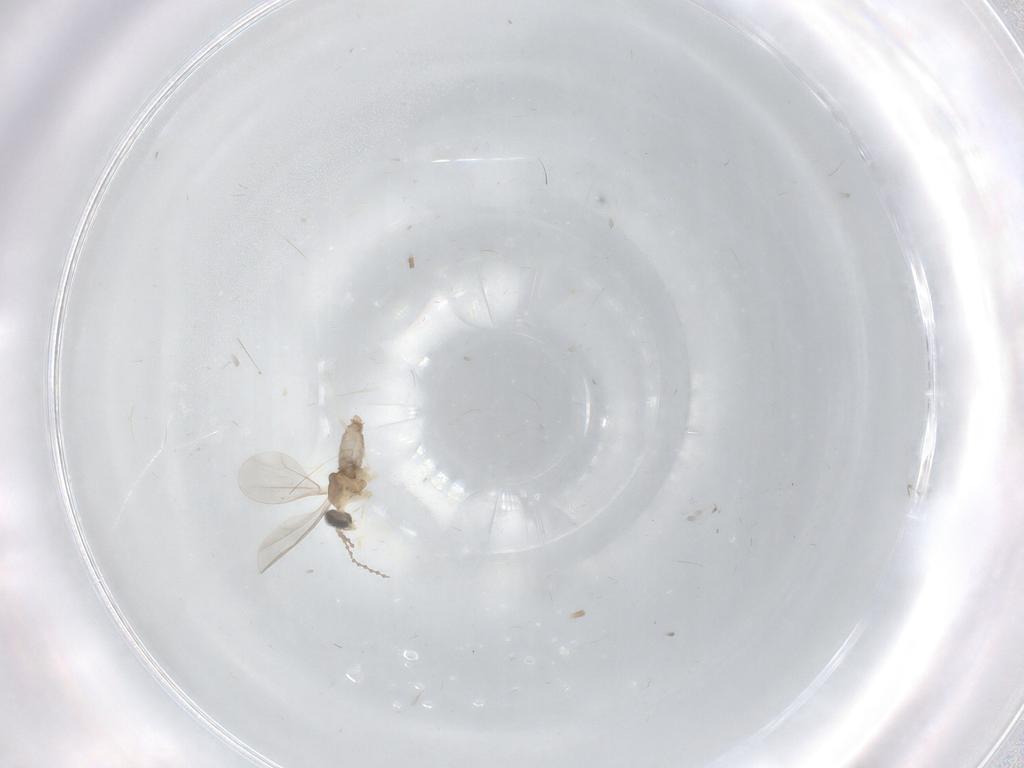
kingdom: Animalia
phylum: Arthropoda
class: Insecta
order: Diptera
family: Cecidomyiidae
